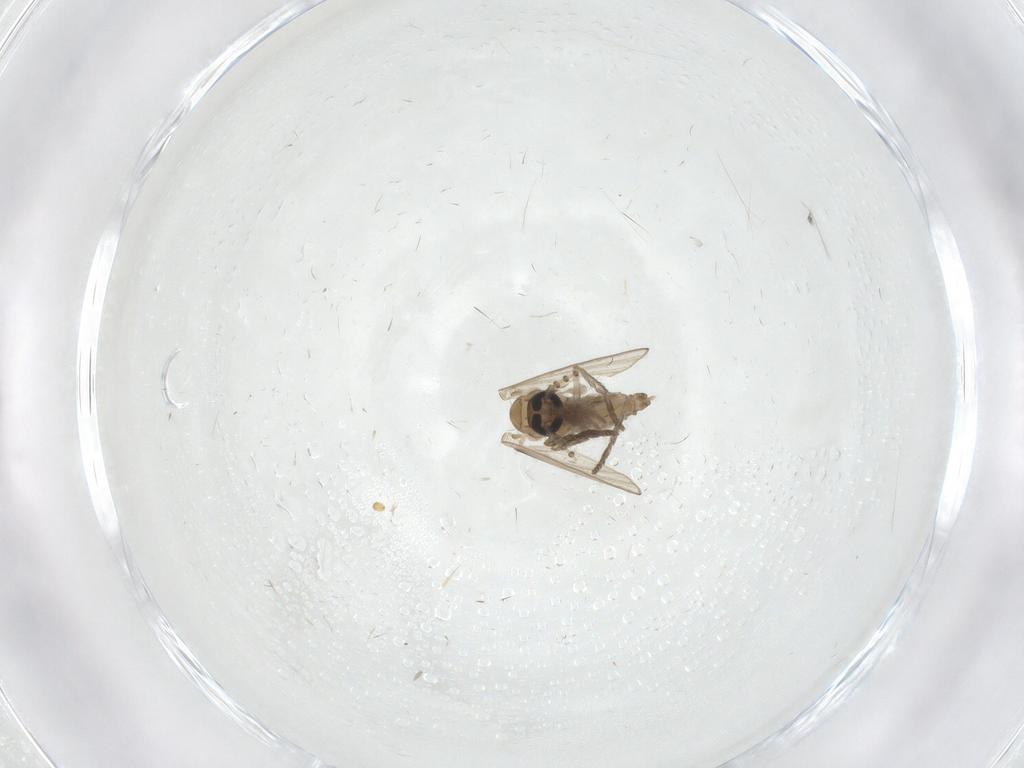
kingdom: Animalia
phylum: Arthropoda
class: Insecta
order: Diptera
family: Psychodidae
